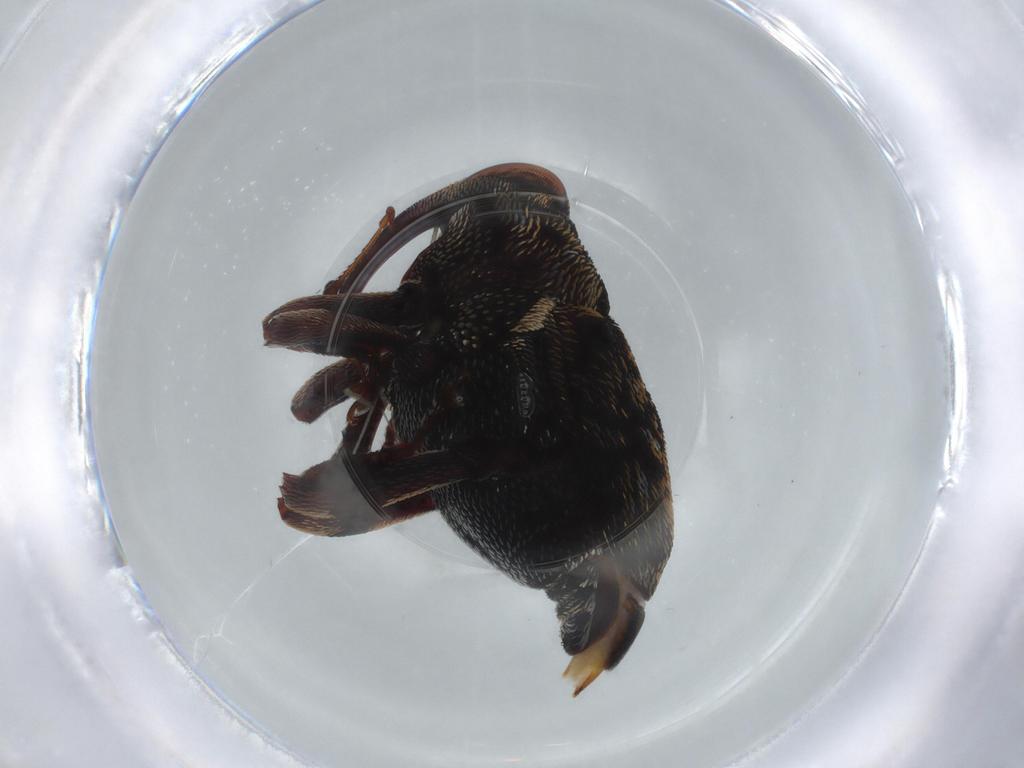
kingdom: Animalia
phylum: Arthropoda
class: Insecta
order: Coleoptera
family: Curculionidae
